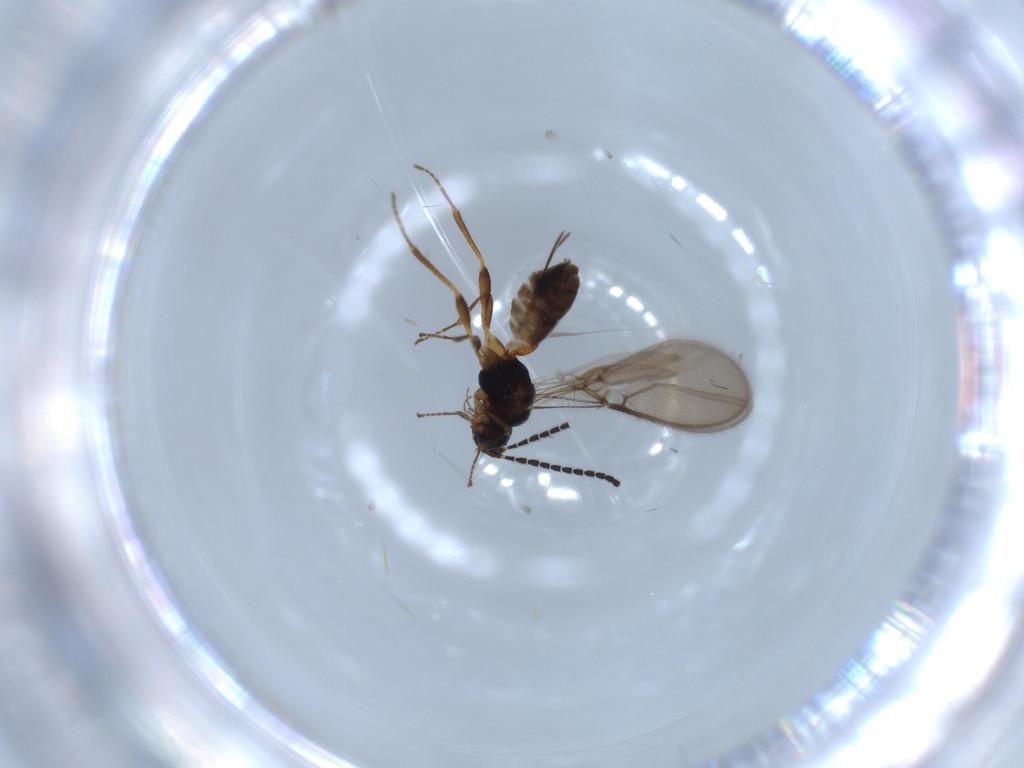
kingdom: Animalia
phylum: Arthropoda
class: Insecta
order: Hymenoptera
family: Braconidae
